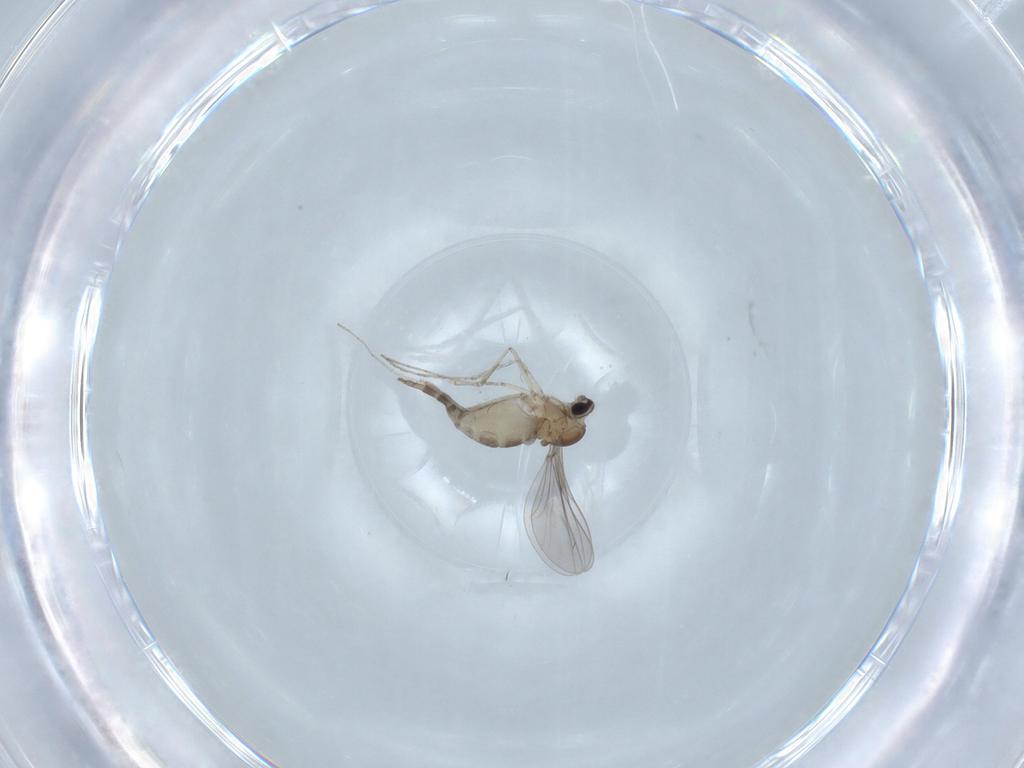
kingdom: Animalia
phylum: Arthropoda
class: Insecta
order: Diptera
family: Cecidomyiidae
